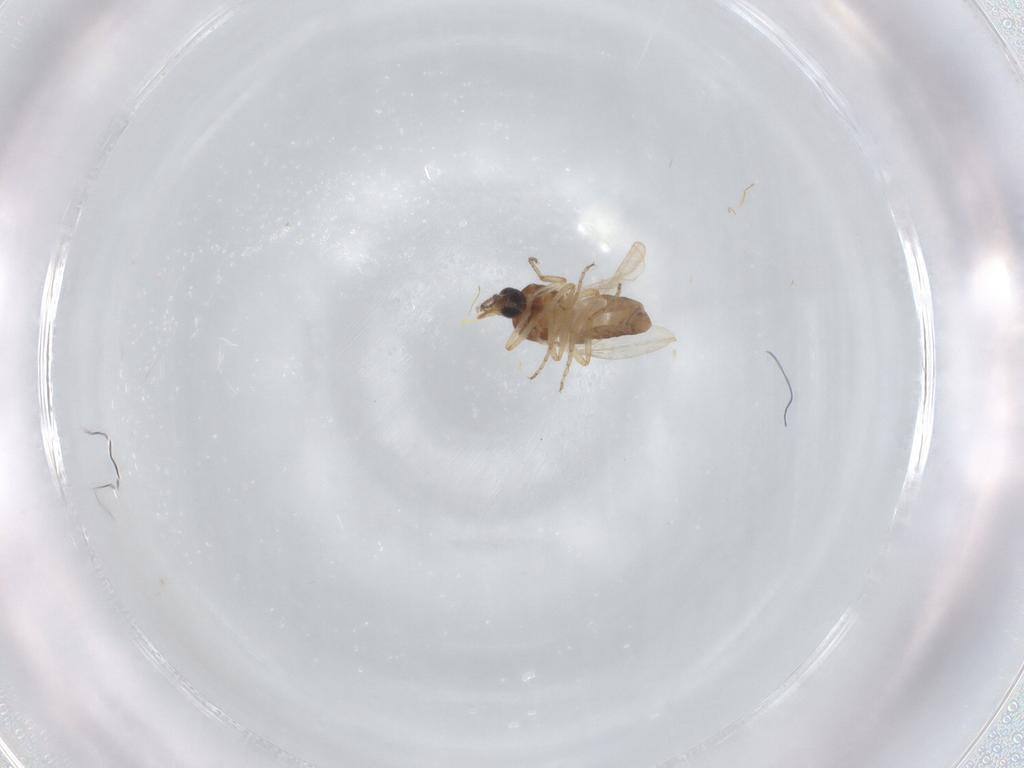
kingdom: Animalia
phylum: Arthropoda
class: Insecta
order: Diptera
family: Ceratopogonidae
